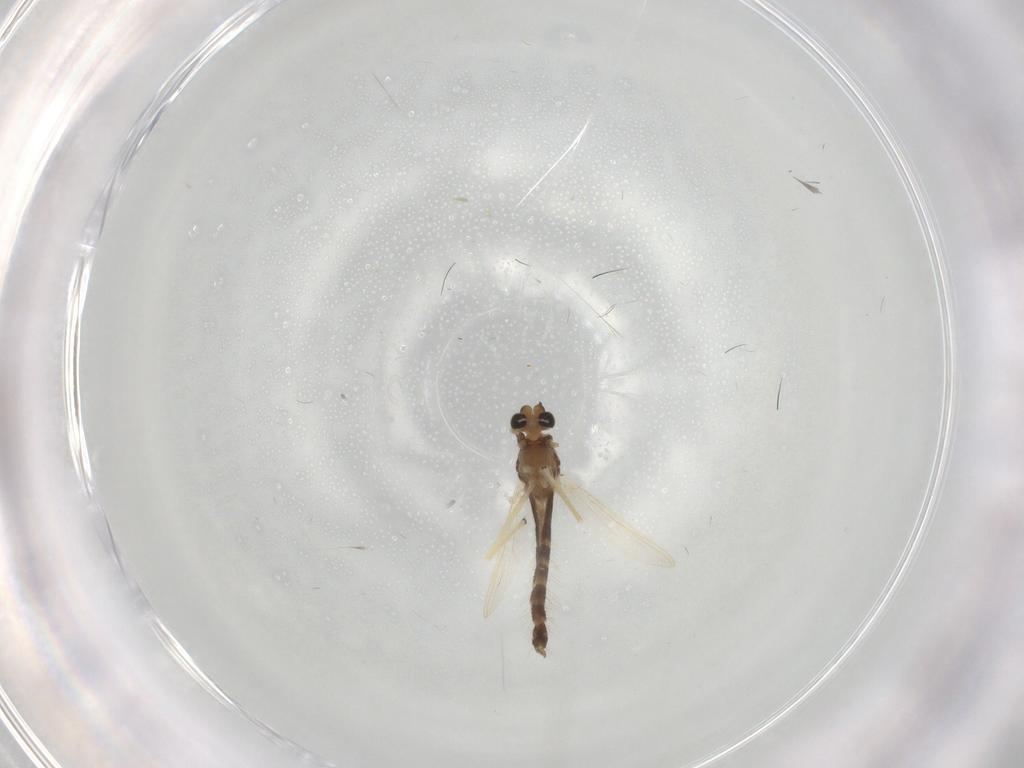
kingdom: Animalia
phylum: Arthropoda
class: Insecta
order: Diptera
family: Chironomidae
